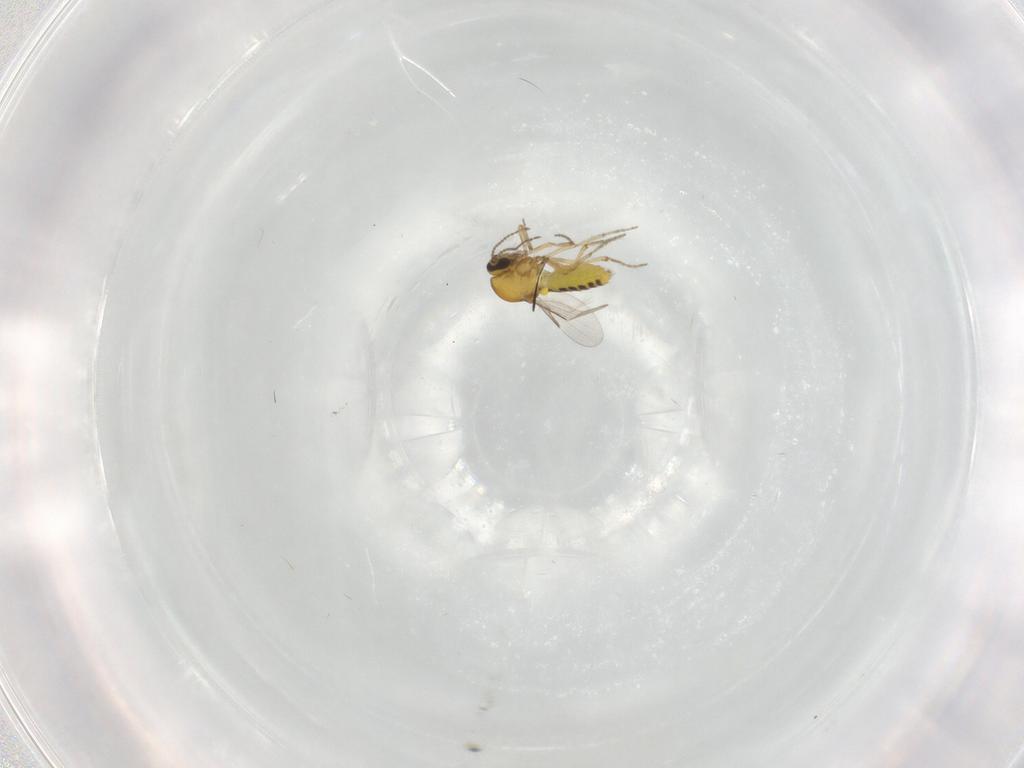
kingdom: Animalia
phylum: Arthropoda
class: Insecta
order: Diptera
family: Ceratopogonidae
